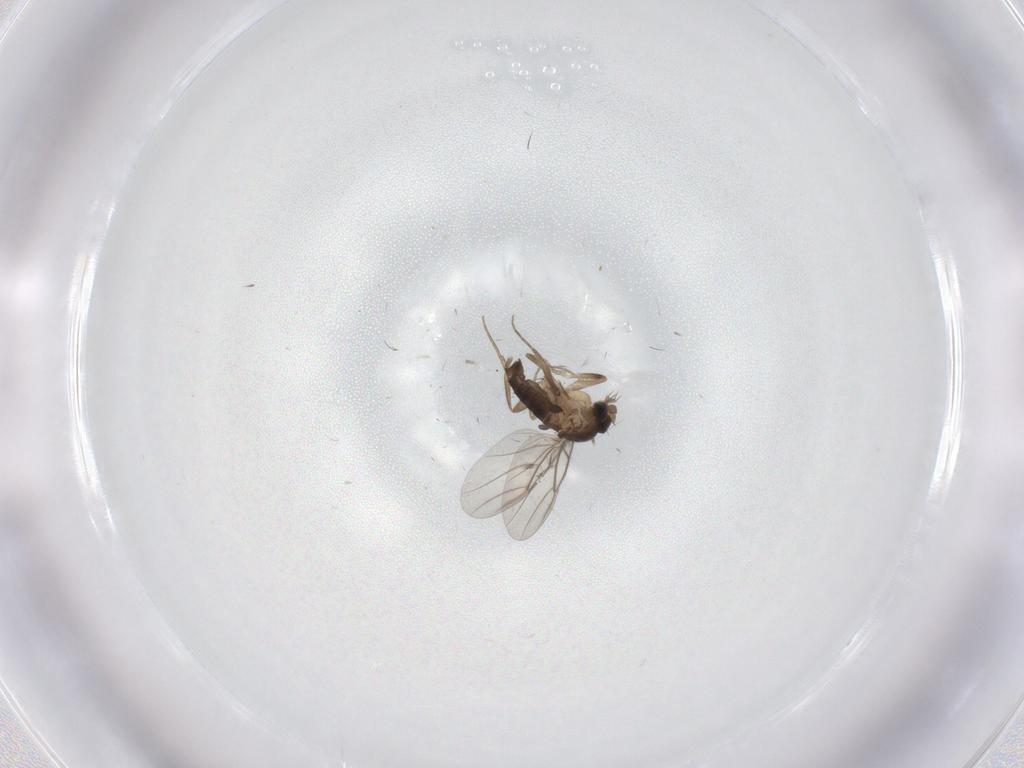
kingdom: Animalia
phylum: Arthropoda
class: Insecta
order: Diptera
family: Phoridae
